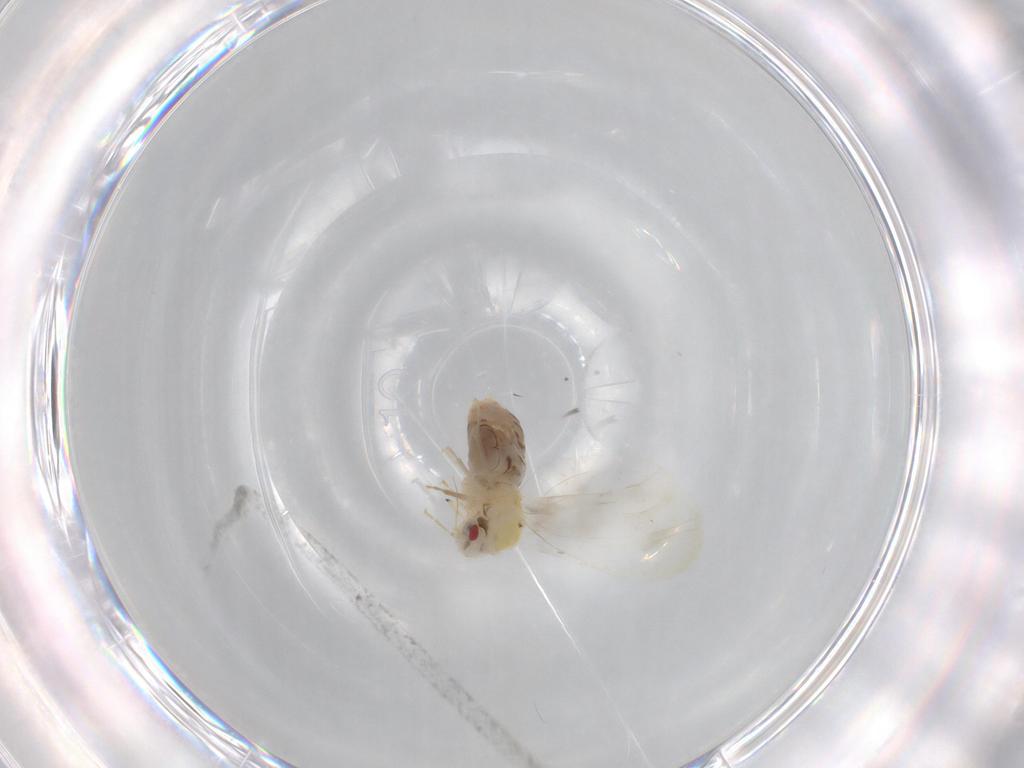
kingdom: Animalia
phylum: Arthropoda
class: Insecta
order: Hemiptera
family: Aleyrodidae
